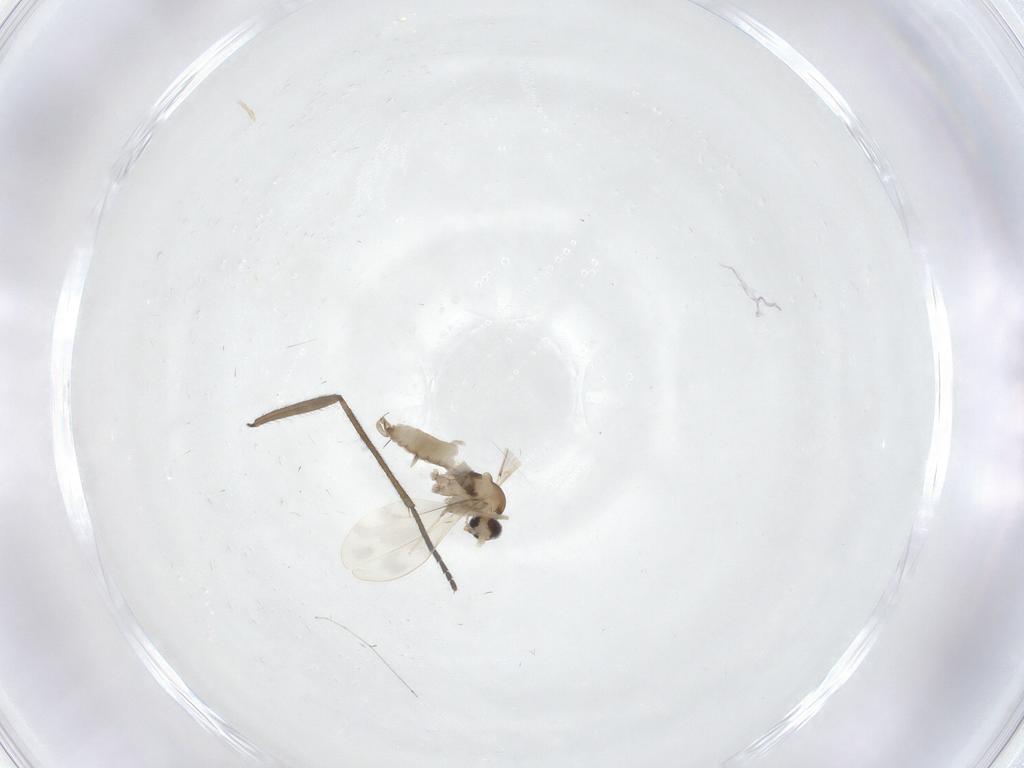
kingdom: Animalia
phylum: Arthropoda
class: Insecta
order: Diptera
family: Cecidomyiidae
